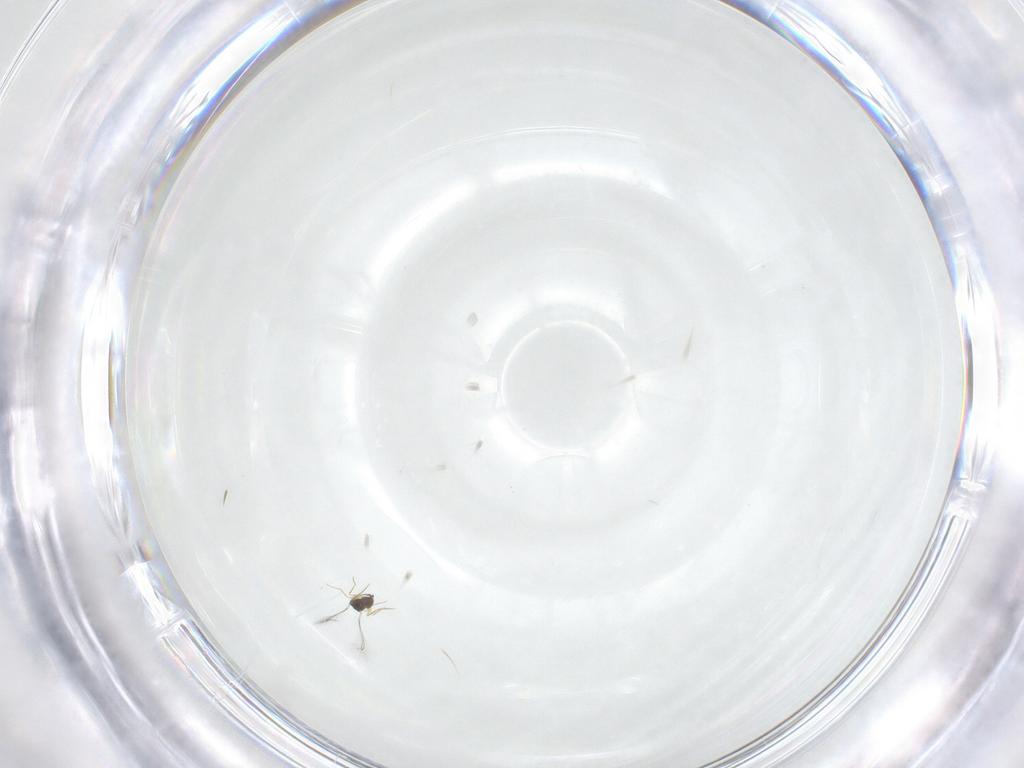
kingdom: Animalia
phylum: Arthropoda
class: Insecta
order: Hymenoptera
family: Mymaridae
